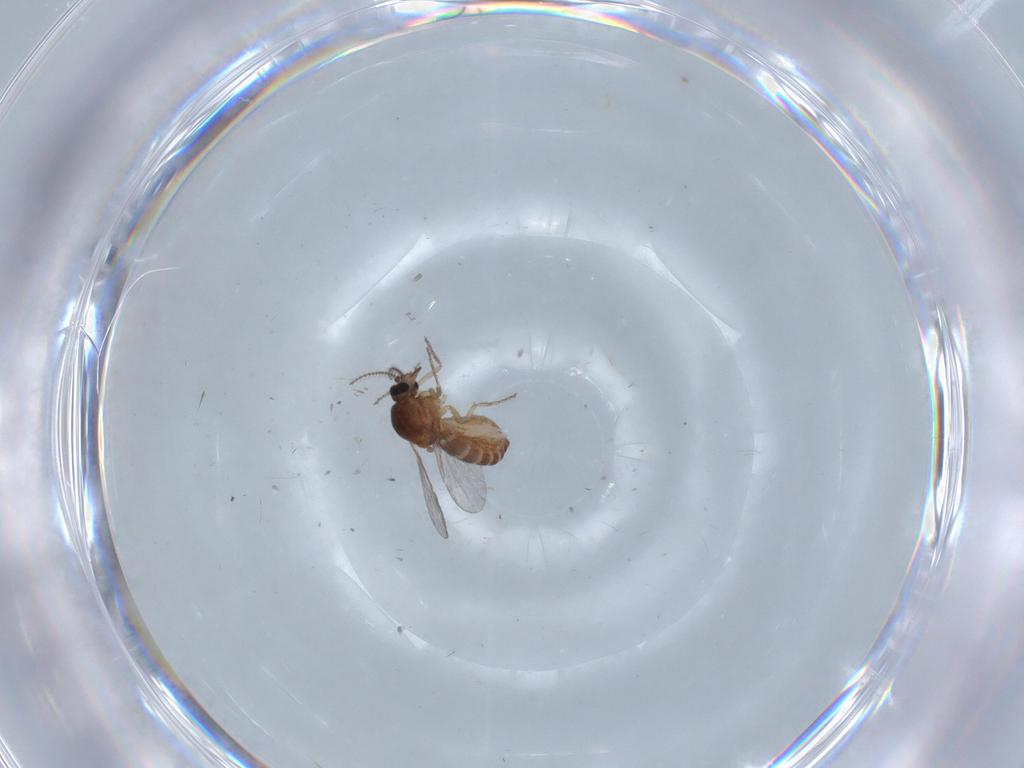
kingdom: Animalia
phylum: Arthropoda
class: Insecta
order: Diptera
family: Ceratopogonidae
